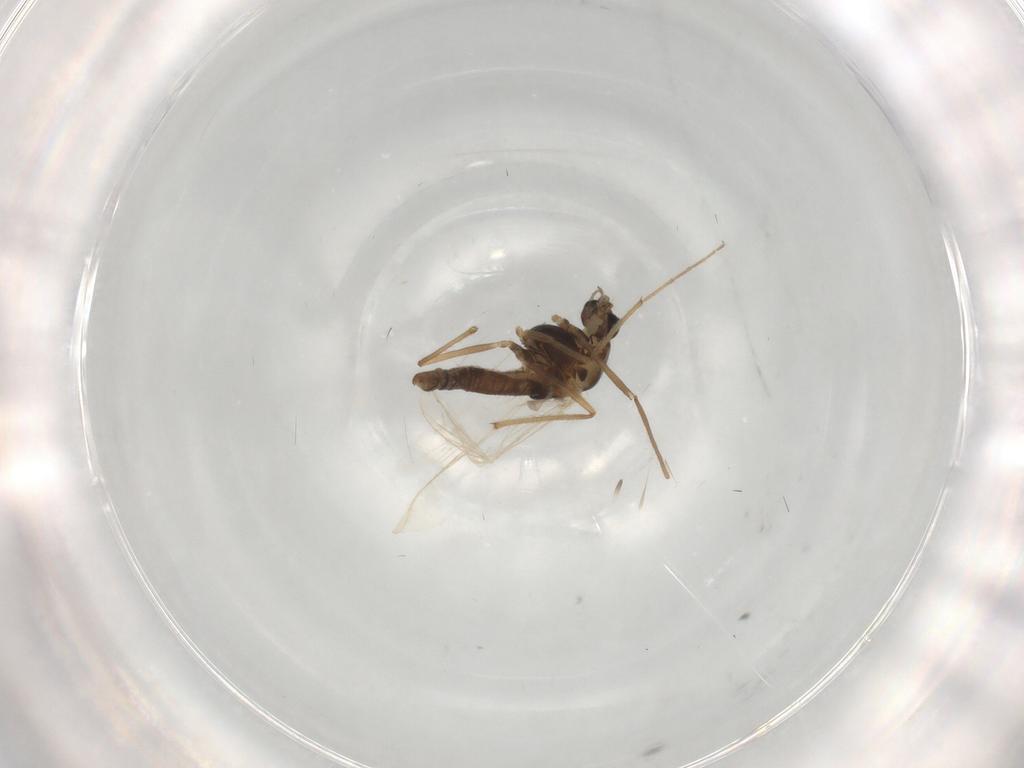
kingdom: Animalia
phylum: Arthropoda
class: Insecta
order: Diptera
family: Chironomidae
